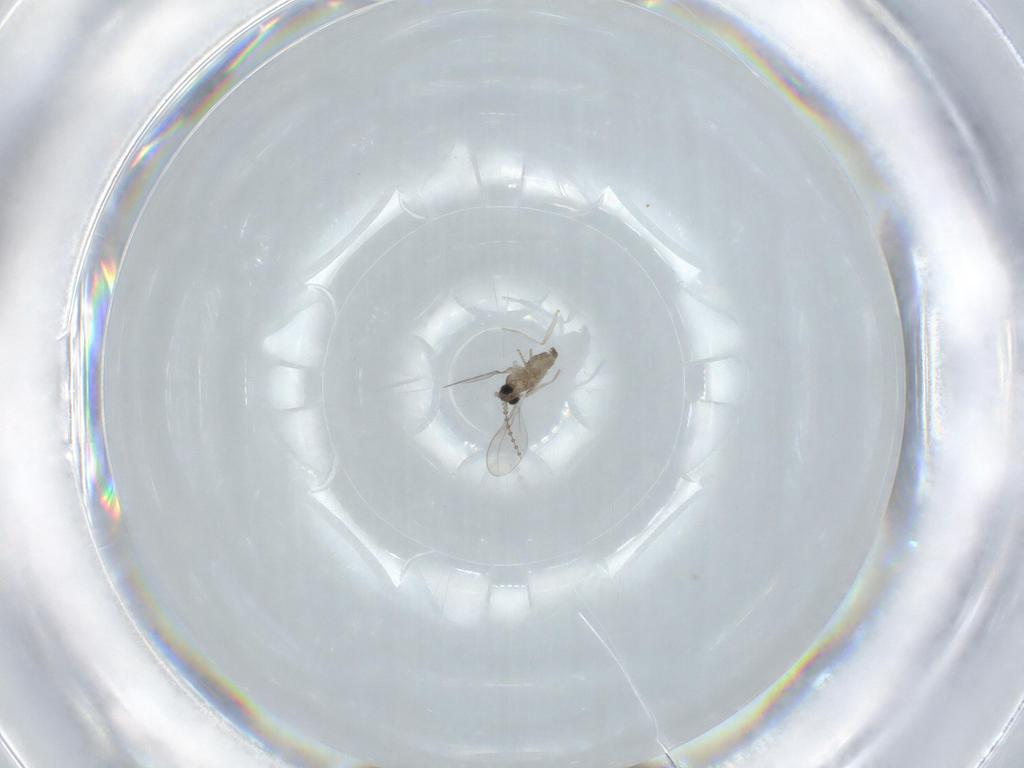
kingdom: Animalia
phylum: Arthropoda
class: Insecta
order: Diptera
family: Cecidomyiidae
